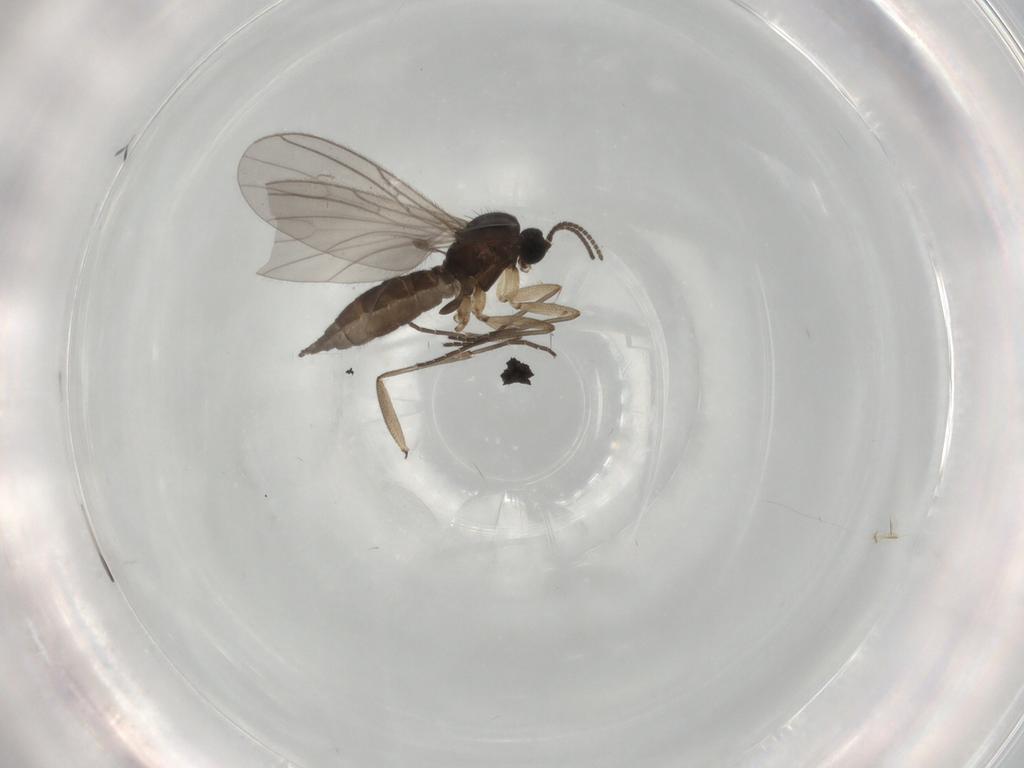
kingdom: Animalia
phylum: Arthropoda
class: Insecta
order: Diptera
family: Sciaridae
